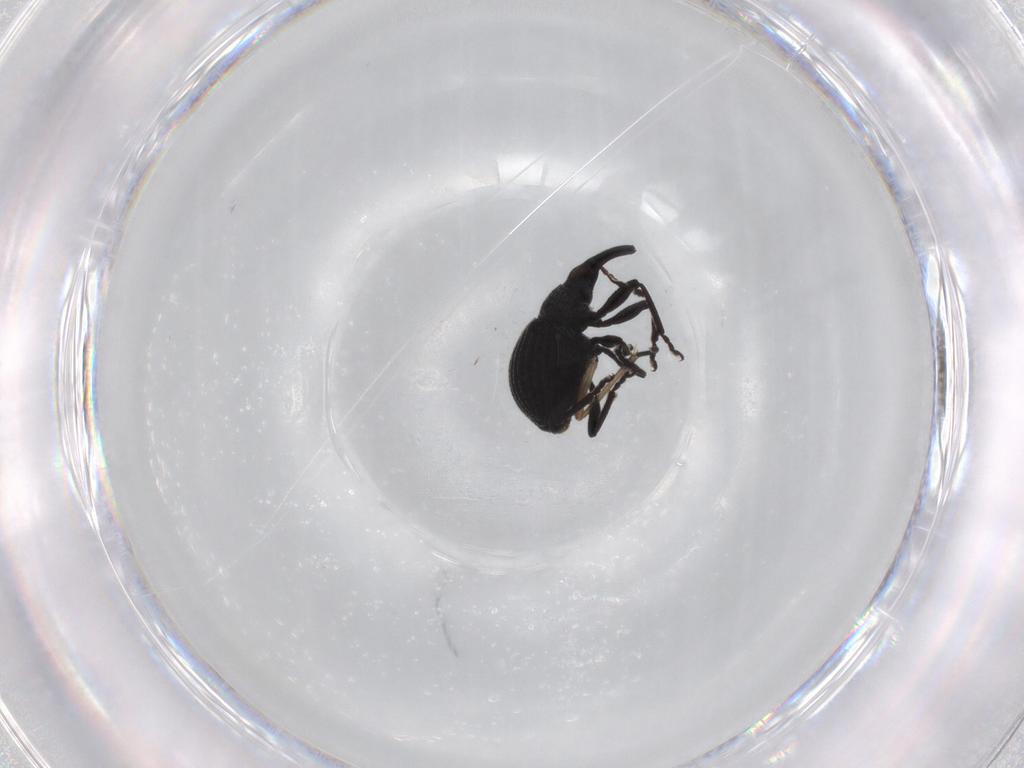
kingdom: Animalia
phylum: Arthropoda
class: Insecta
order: Coleoptera
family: Brentidae
